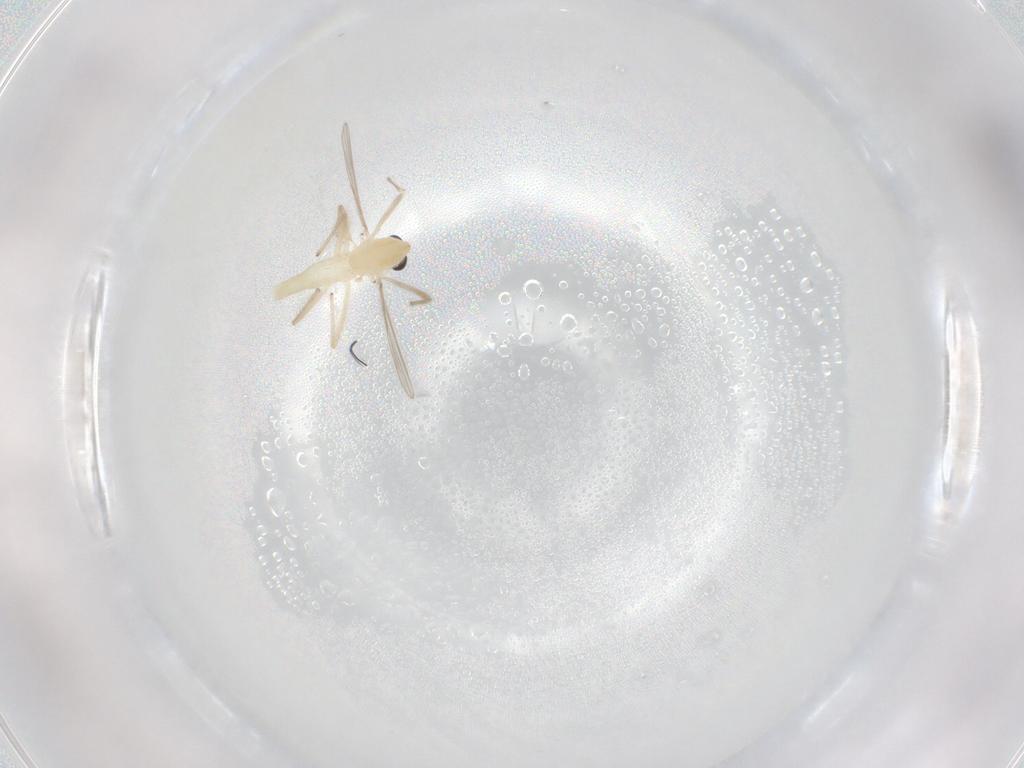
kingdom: Animalia
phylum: Arthropoda
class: Insecta
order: Diptera
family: Chironomidae
